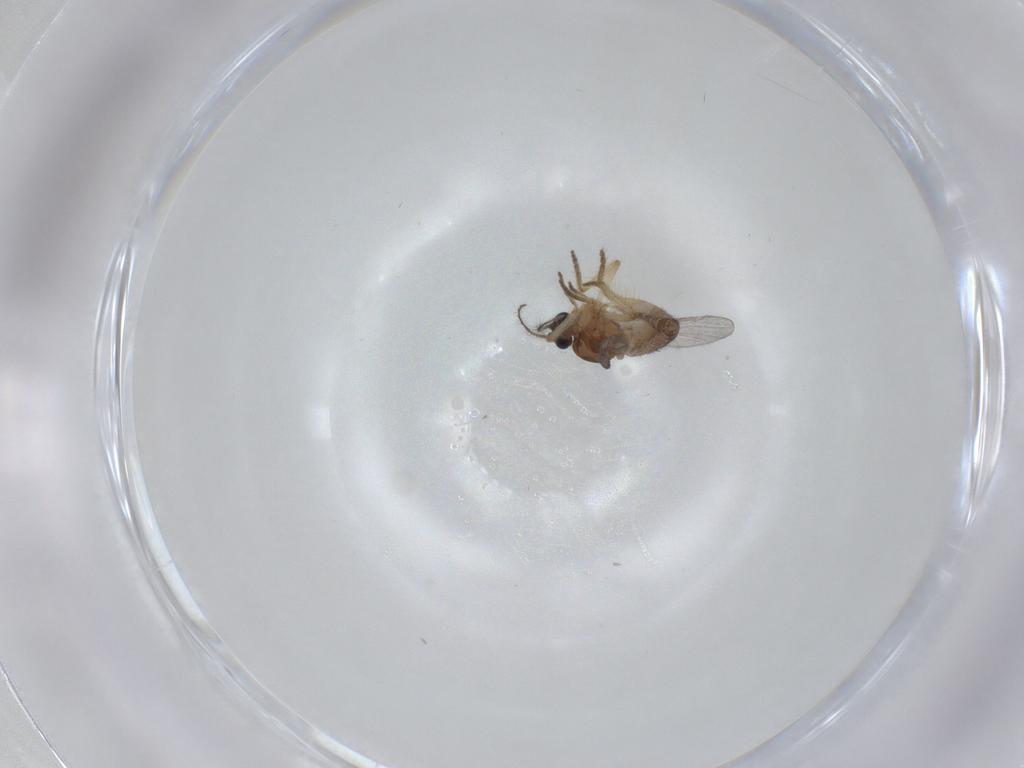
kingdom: Animalia
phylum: Arthropoda
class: Insecta
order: Diptera
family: Ceratopogonidae
